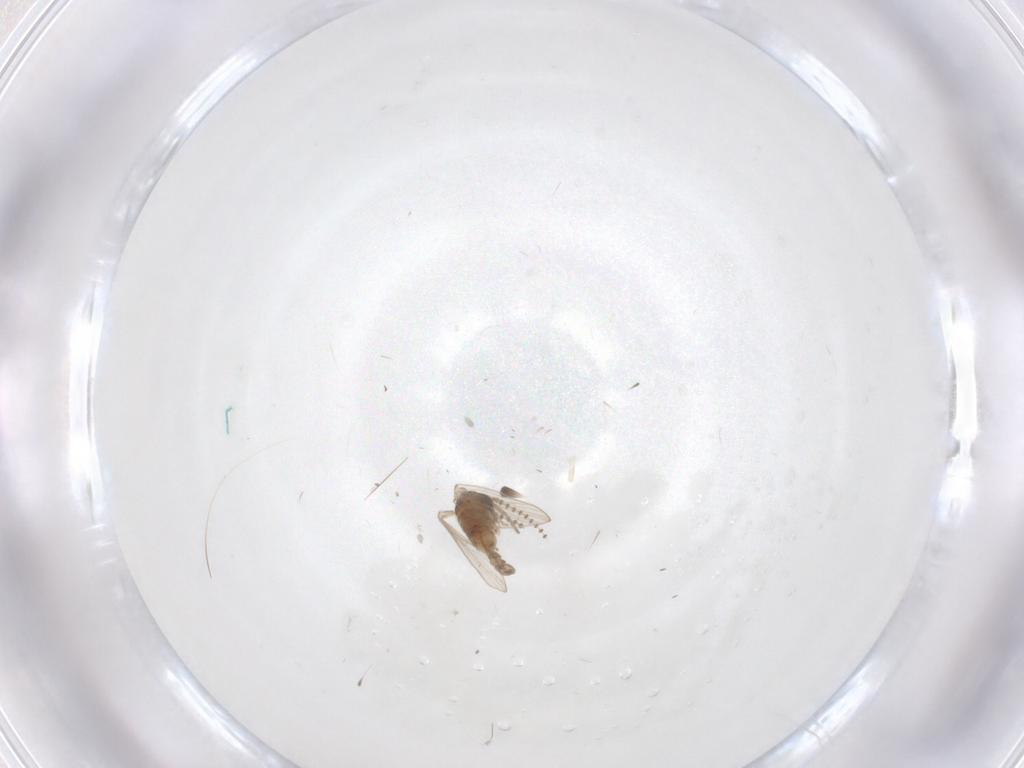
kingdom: Animalia
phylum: Arthropoda
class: Insecta
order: Diptera
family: Psychodidae
